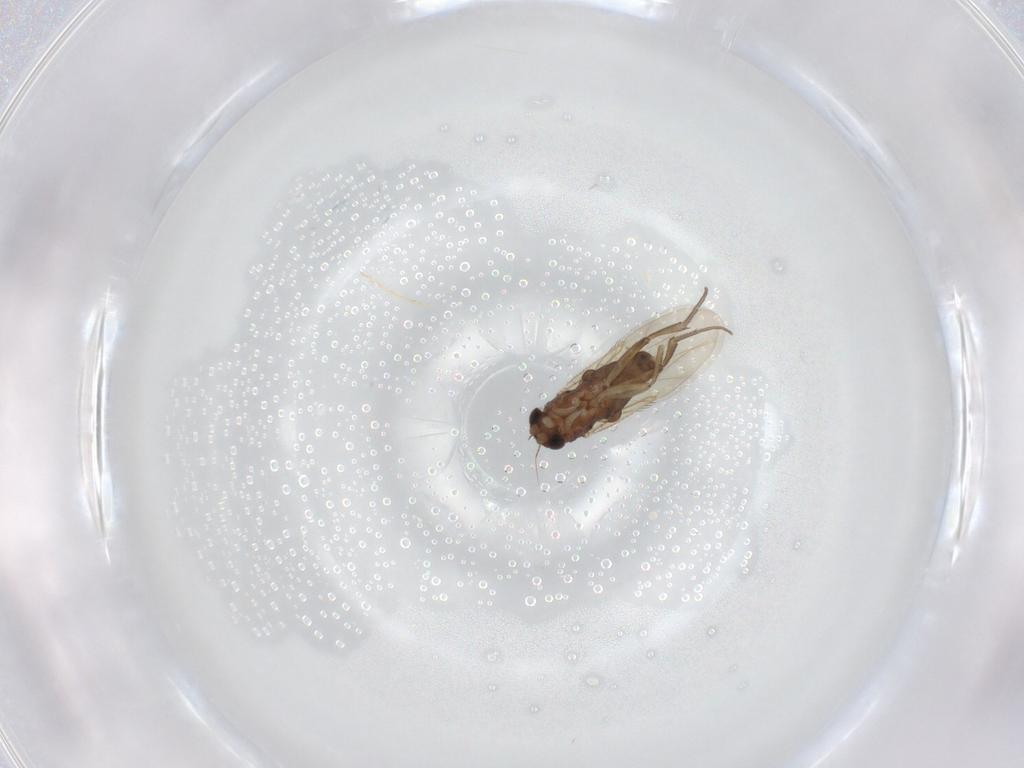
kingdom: Animalia
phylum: Arthropoda
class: Insecta
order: Diptera
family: Phoridae
